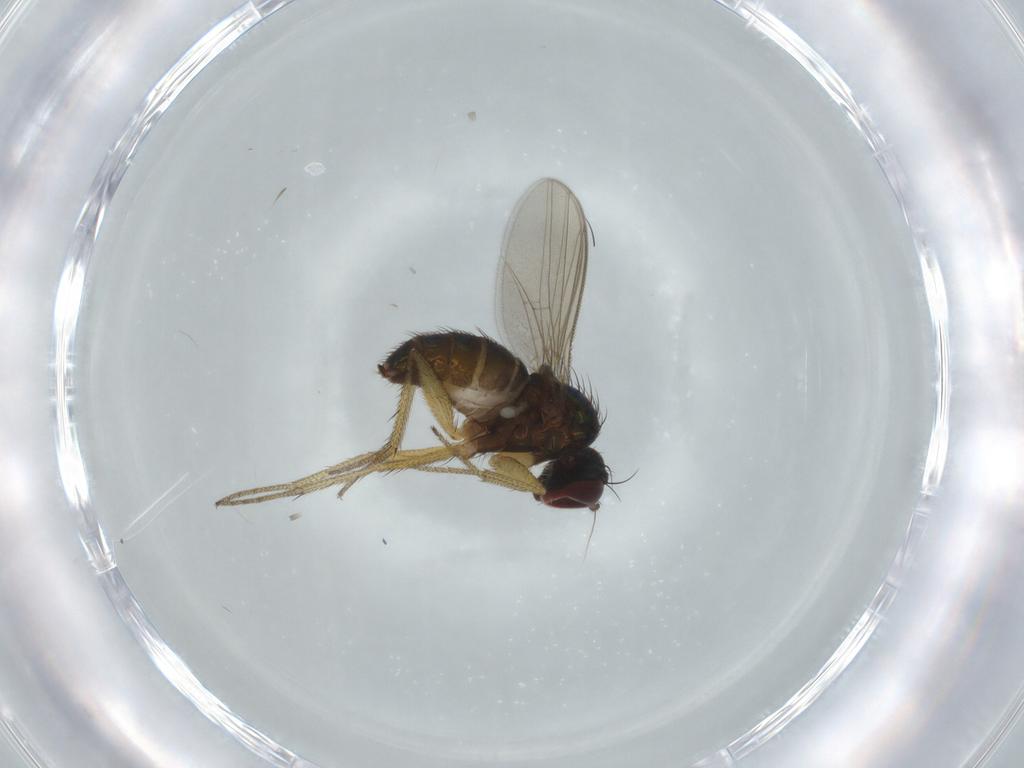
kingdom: Animalia
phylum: Arthropoda
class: Insecta
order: Diptera
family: Dolichopodidae
